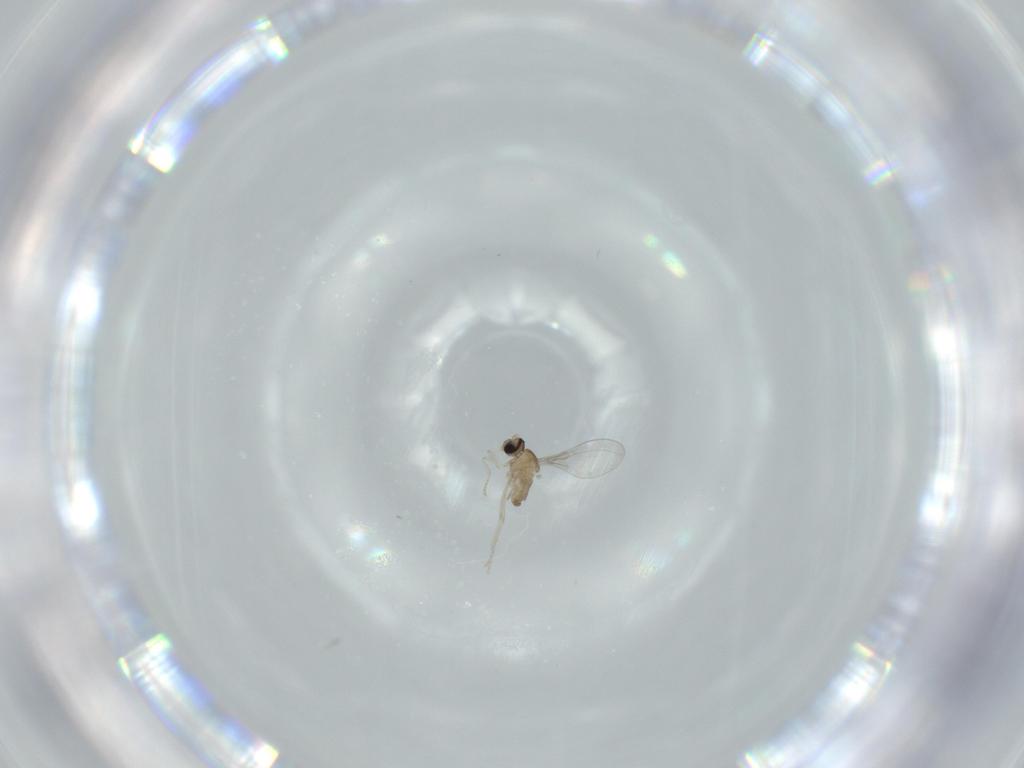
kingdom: Animalia
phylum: Arthropoda
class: Insecta
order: Diptera
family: Cecidomyiidae
